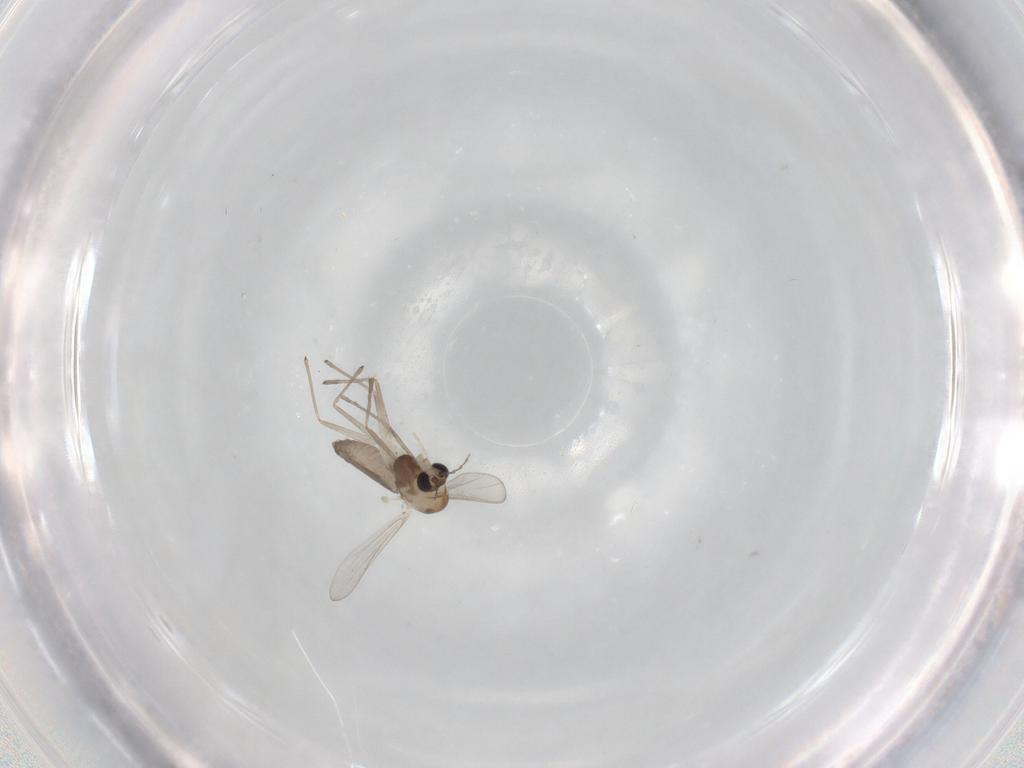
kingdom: Animalia
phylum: Arthropoda
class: Insecta
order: Diptera
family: Chironomidae
